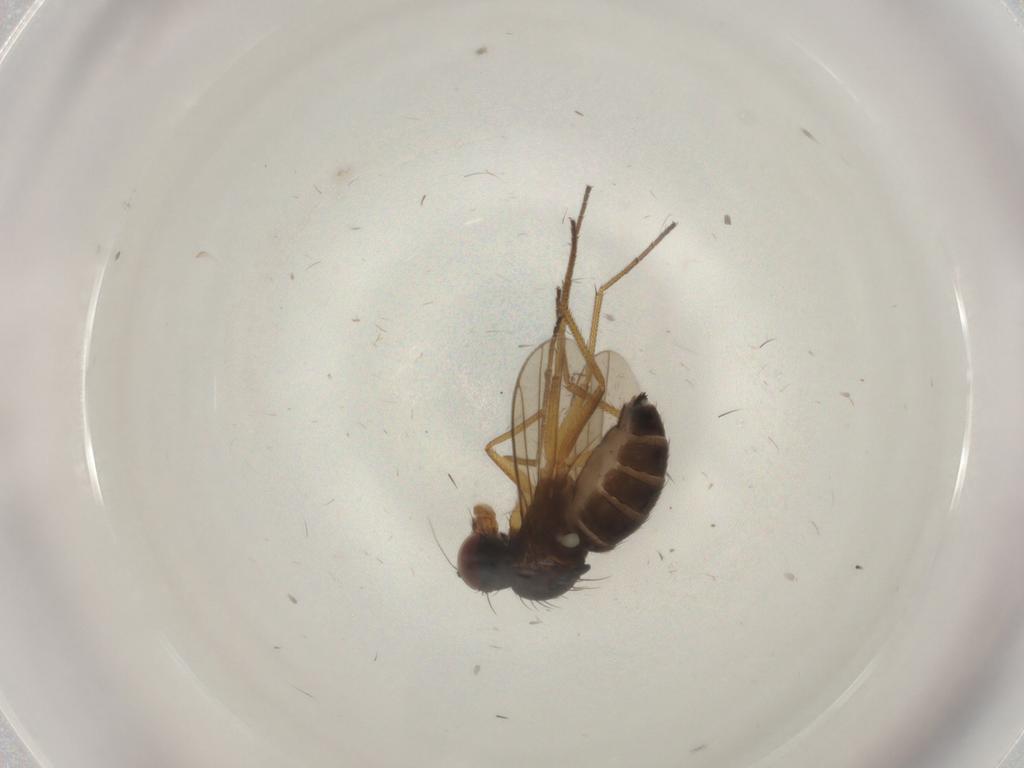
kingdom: Animalia
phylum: Arthropoda
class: Insecta
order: Diptera
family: Dolichopodidae
